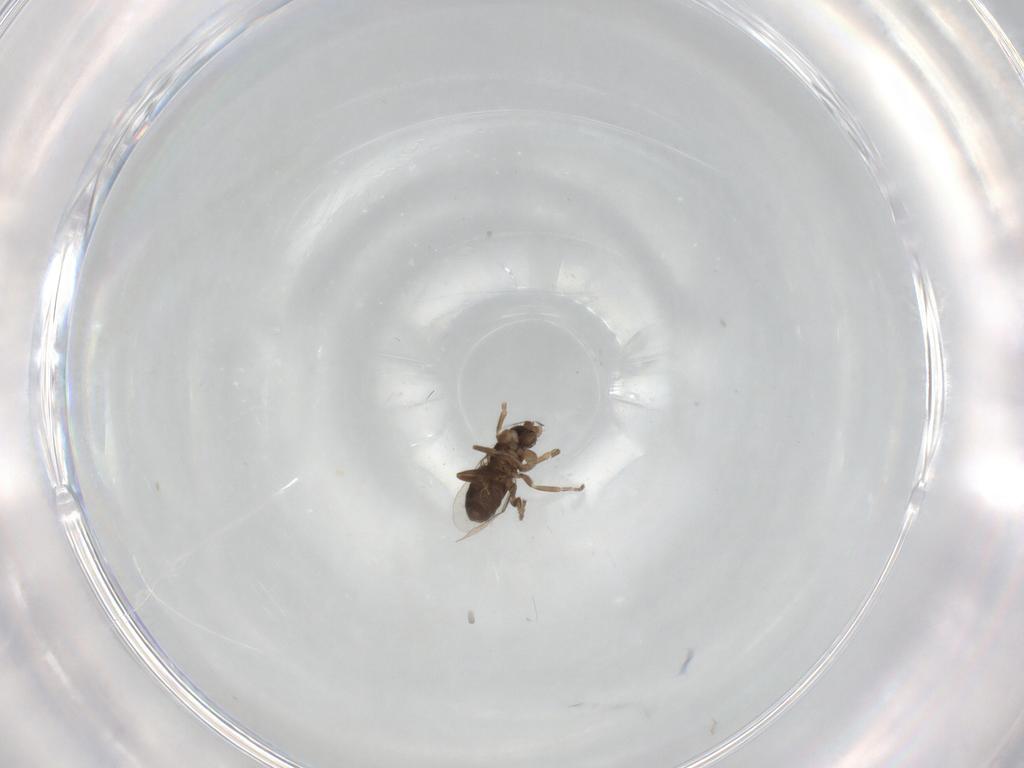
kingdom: Animalia
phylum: Arthropoda
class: Insecta
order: Diptera
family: Phoridae
